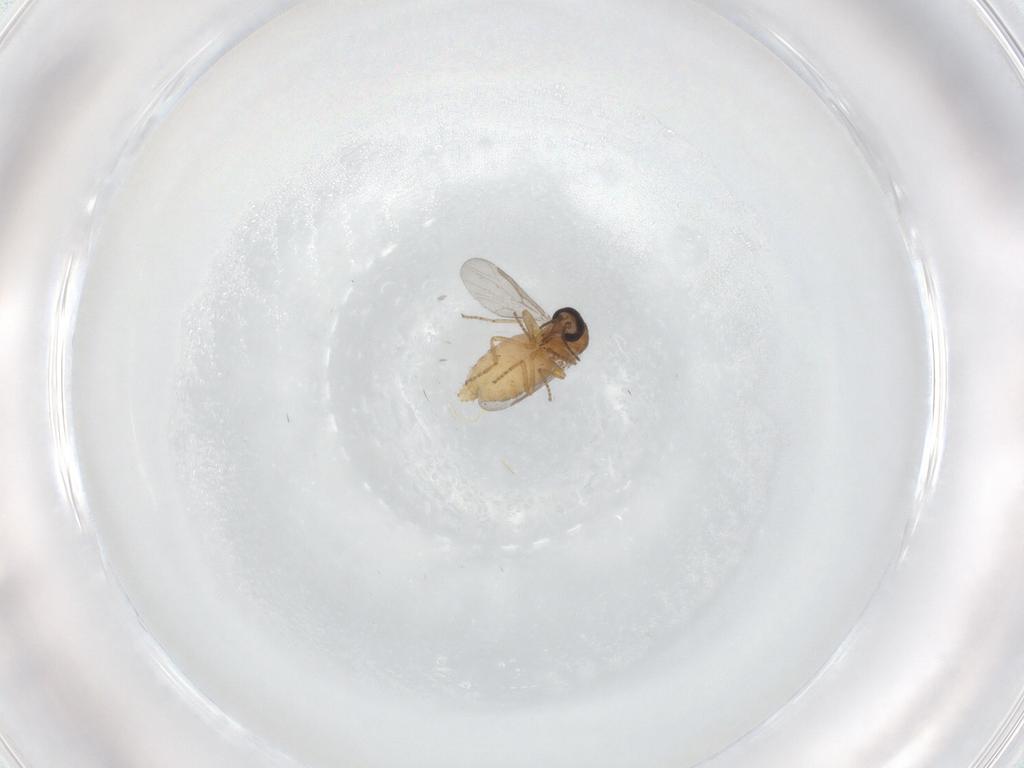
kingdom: Animalia
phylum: Arthropoda
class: Insecta
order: Diptera
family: Ceratopogonidae
